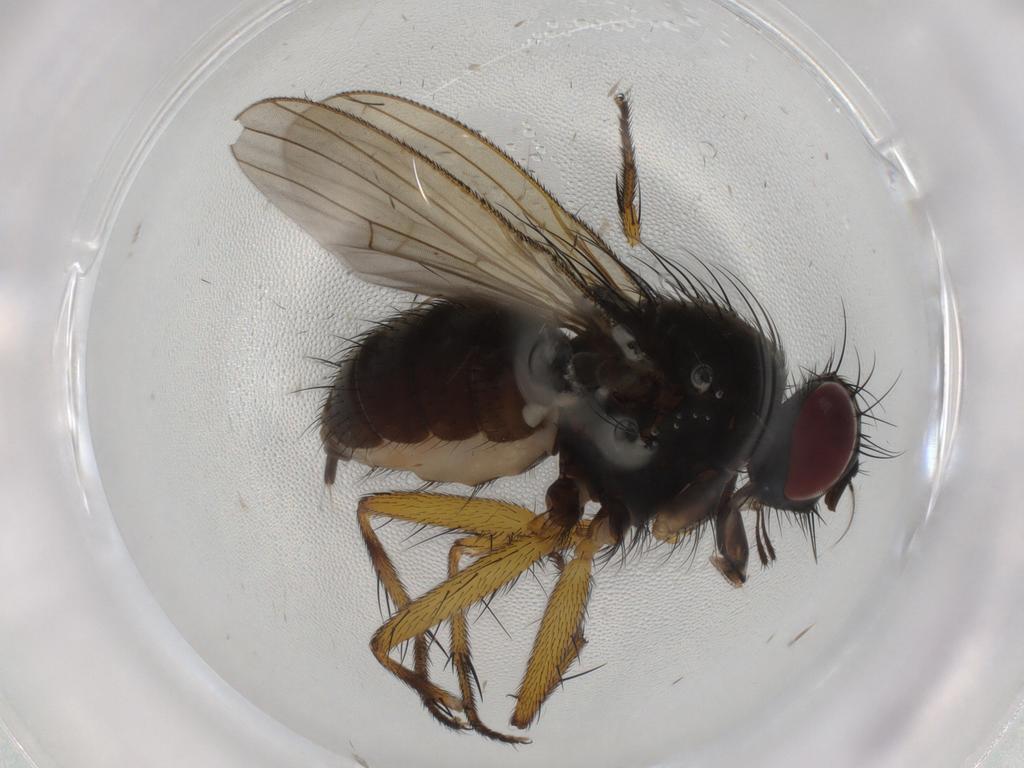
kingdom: Animalia
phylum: Arthropoda
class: Insecta
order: Diptera
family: Muscidae
